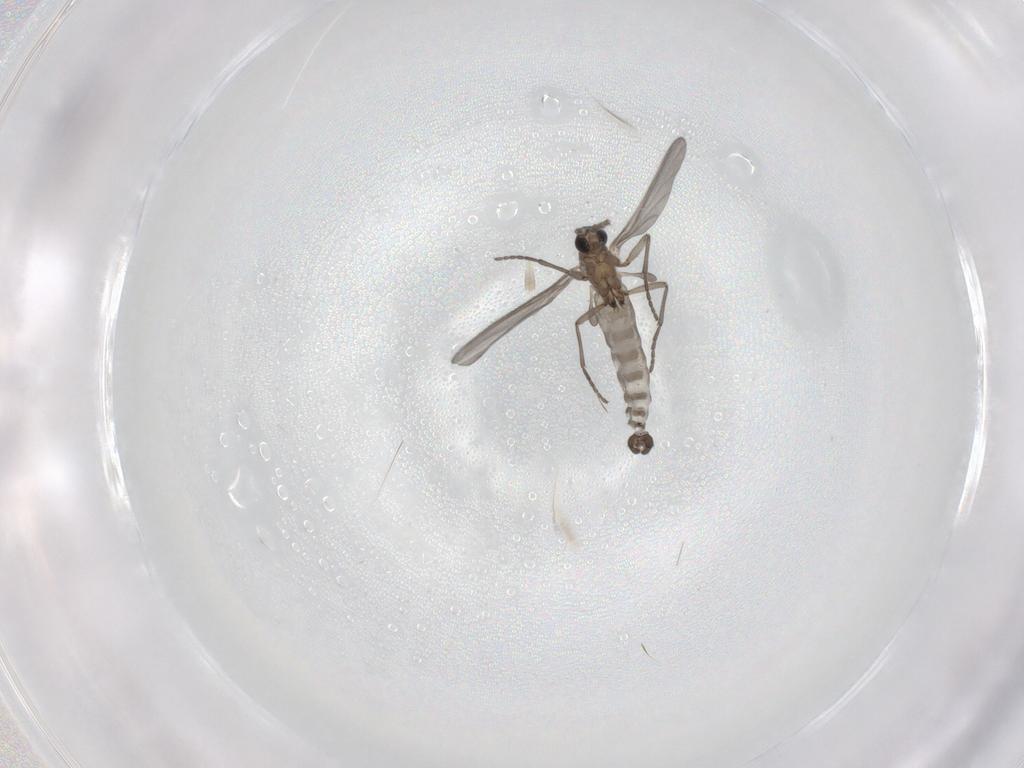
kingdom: Animalia
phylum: Arthropoda
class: Insecta
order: Diptera
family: Sciaridae
